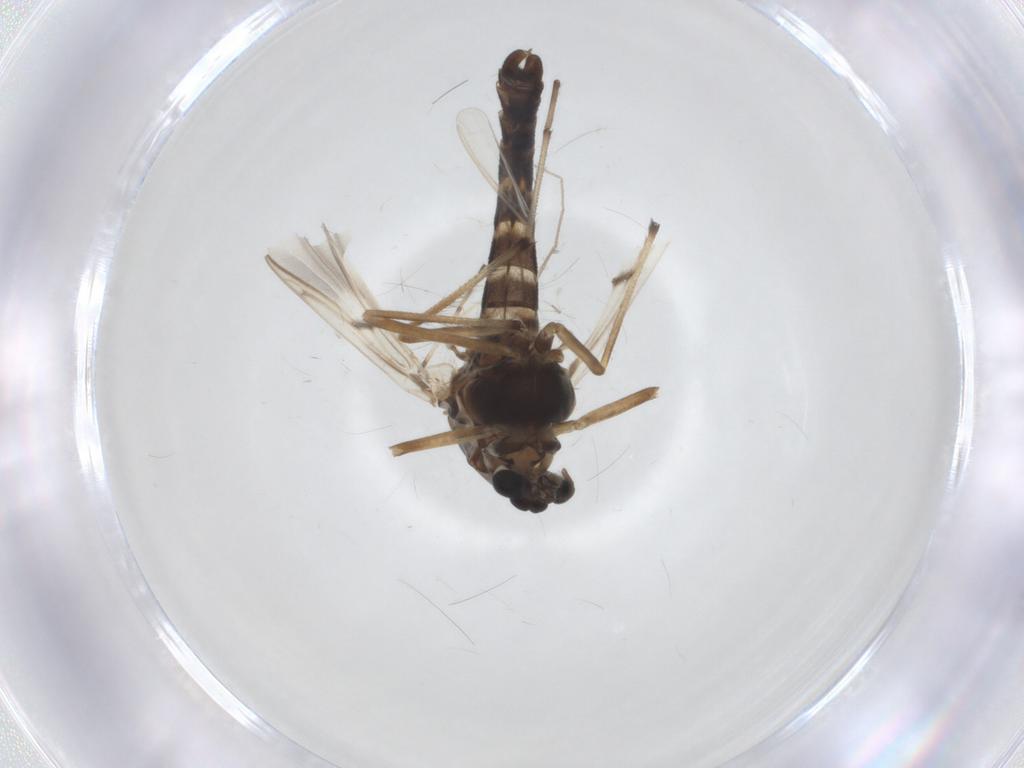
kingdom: Animalia
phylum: Arthropoda
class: Insecta
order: Diptera
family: Chironomidae
